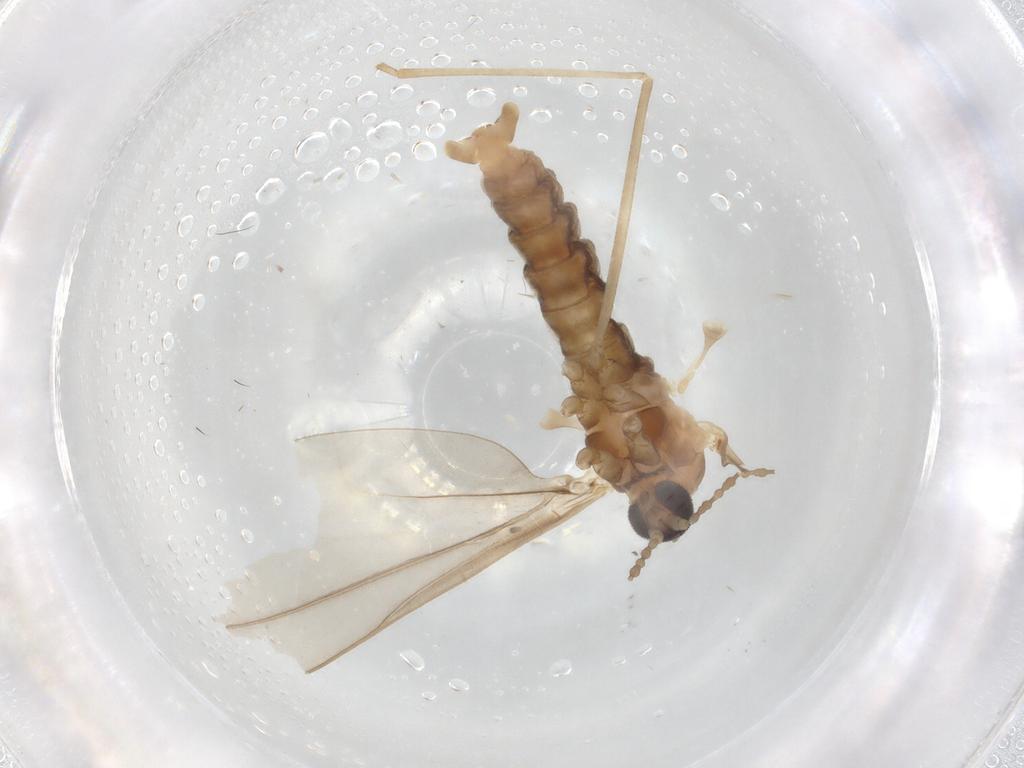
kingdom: Animalia
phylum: Arthropoda
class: Insecta
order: Diptera
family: Cecidomyiidae
